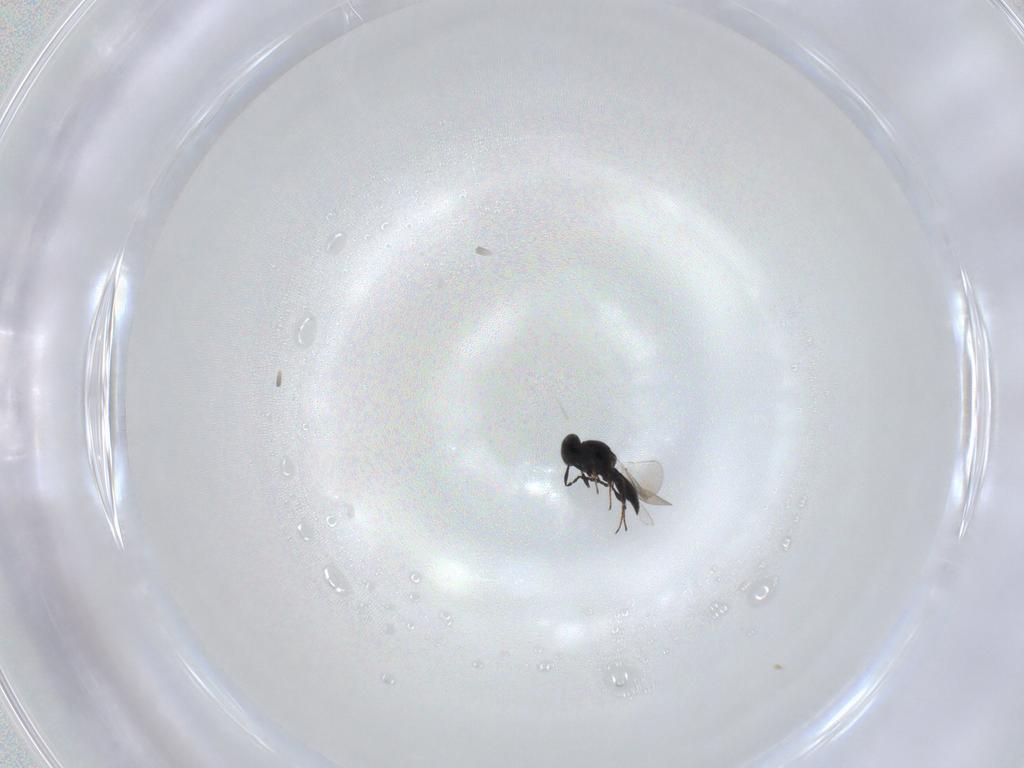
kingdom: Animalia
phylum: Arthropoda
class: Insecta
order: Hymenoptera
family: Platygastridae
